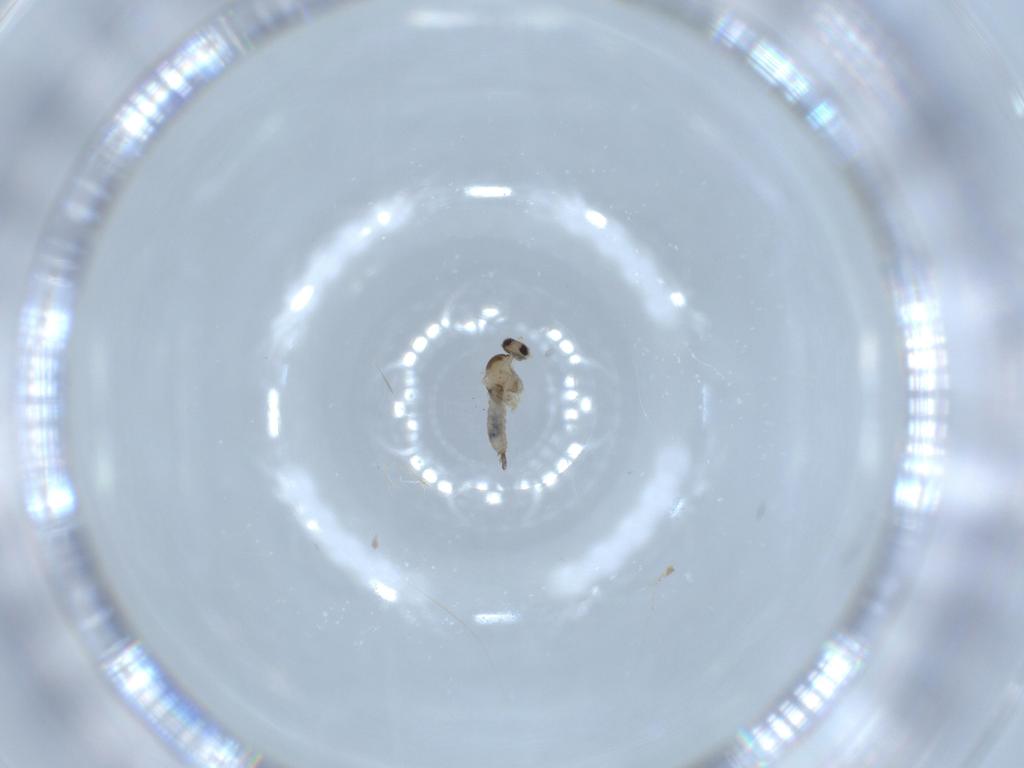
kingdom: Animalia
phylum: Arthropoda
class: Insecta
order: Diptera
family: Cecidomyiidae
